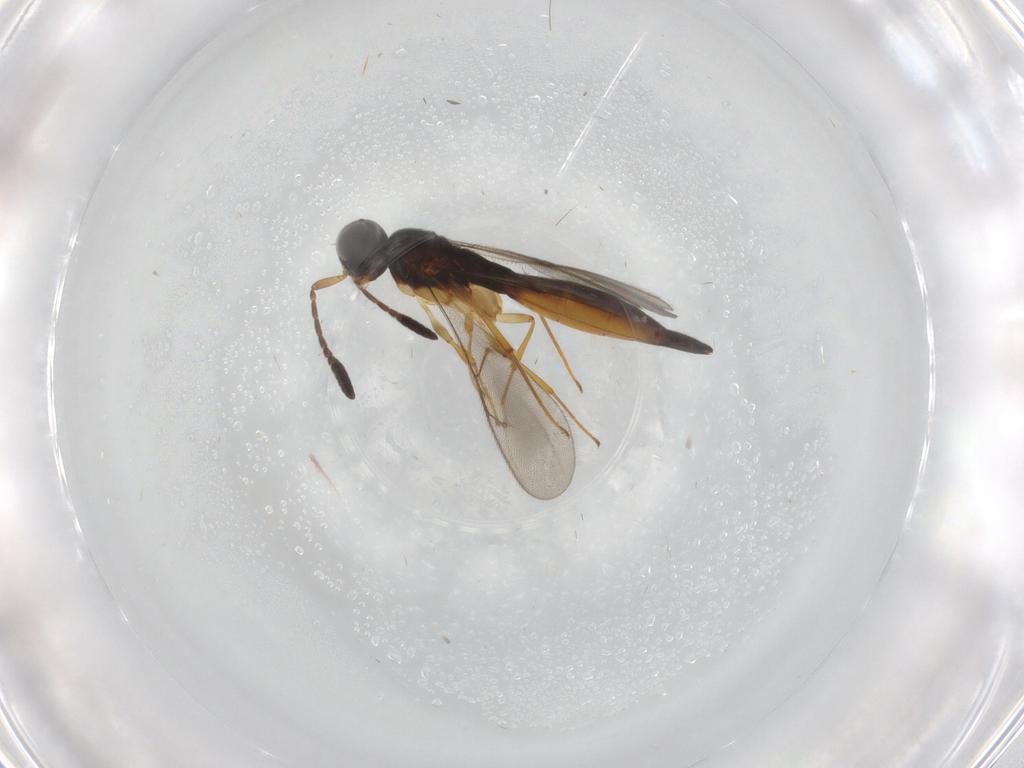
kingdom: Animalia
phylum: Arthropoda
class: Insecta
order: Hymenoptera
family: Scelionidae
